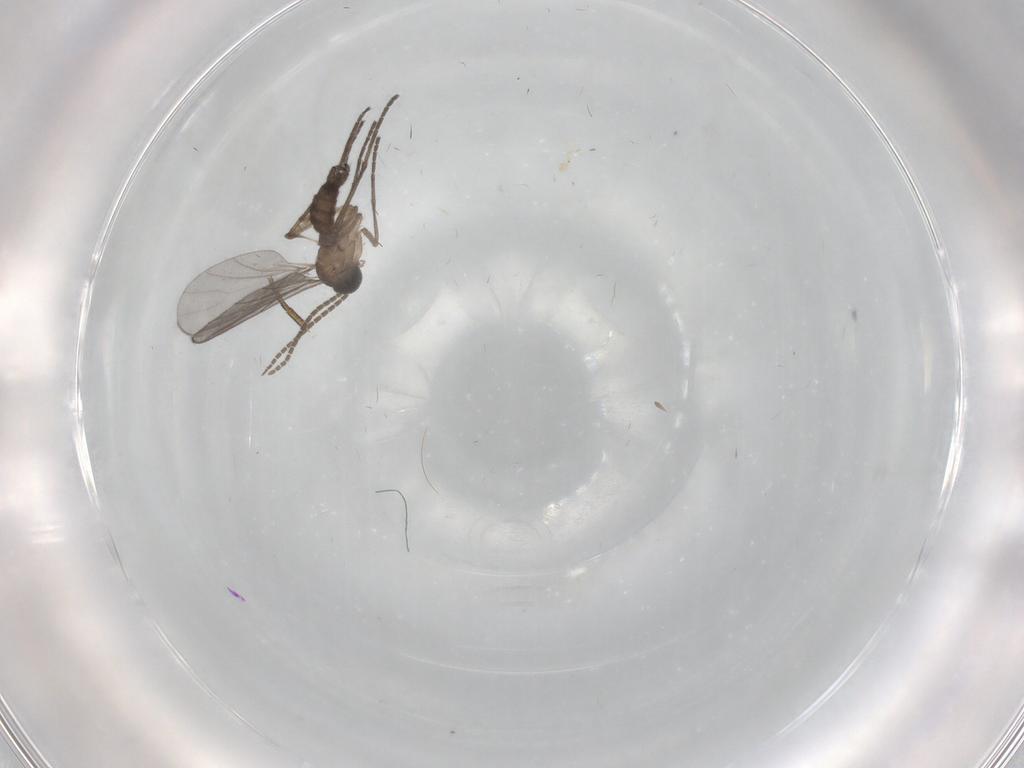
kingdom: Animalia
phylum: Arthropoda
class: Insecta
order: Diptera
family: Sciaridae
